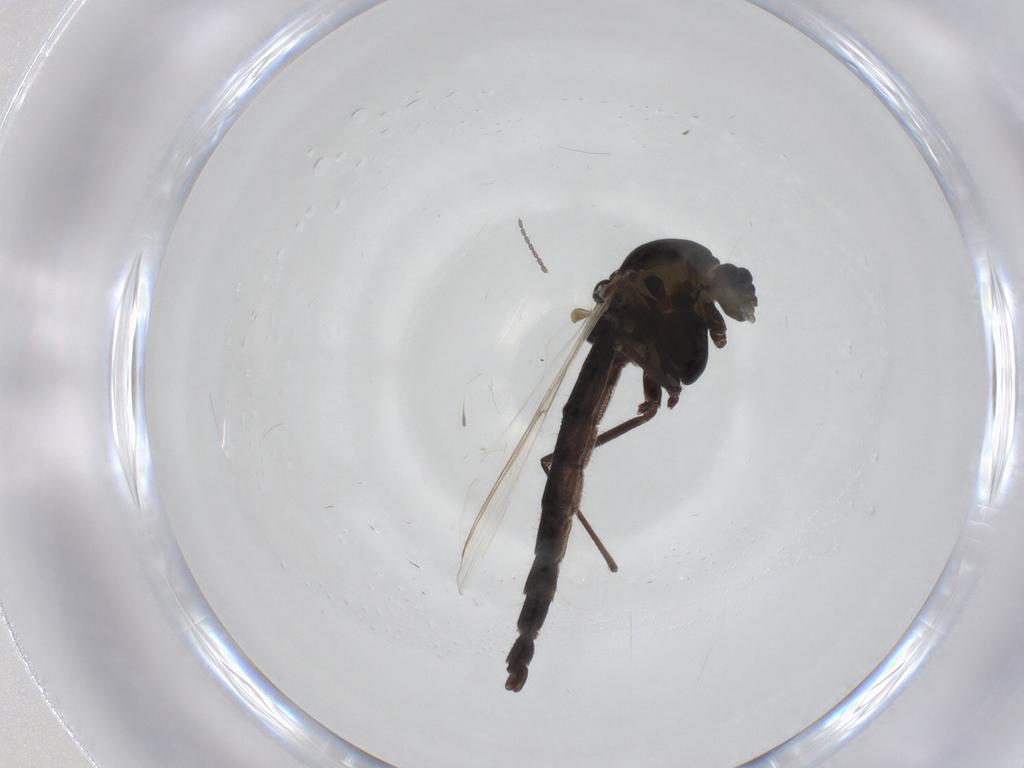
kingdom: Animalia
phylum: Arthropoda
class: Insecta
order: Diptera
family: Chironomidae
